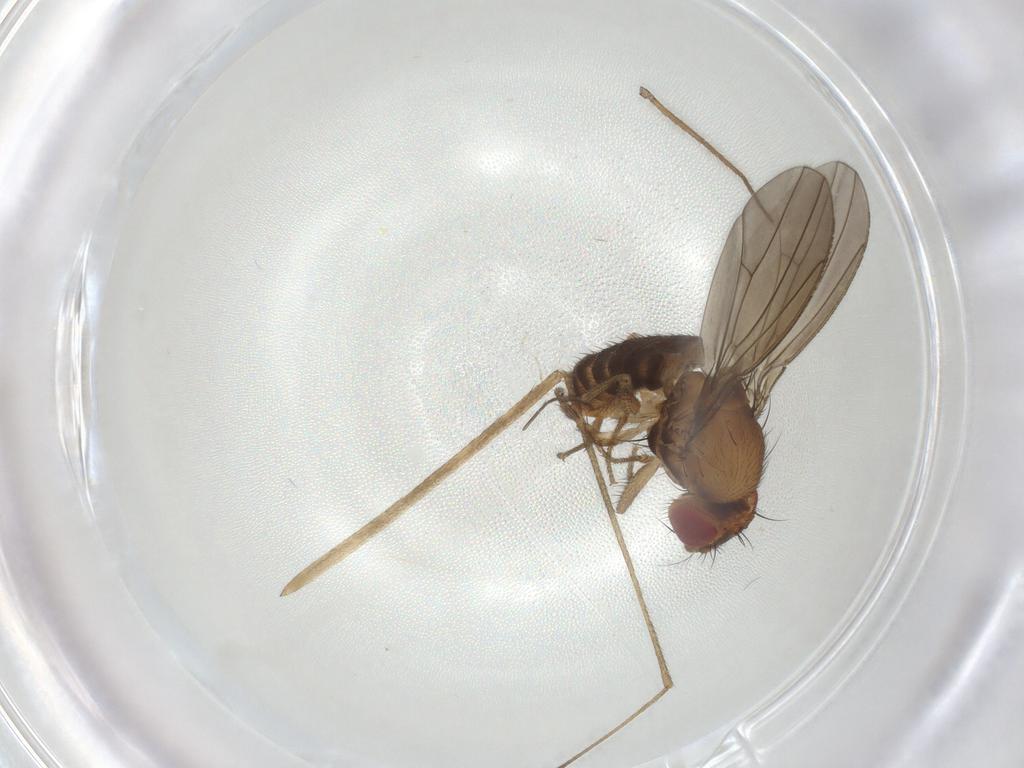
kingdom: Animalia
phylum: Arthropoda
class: Insecta
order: Diptera
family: Drosophilidae
